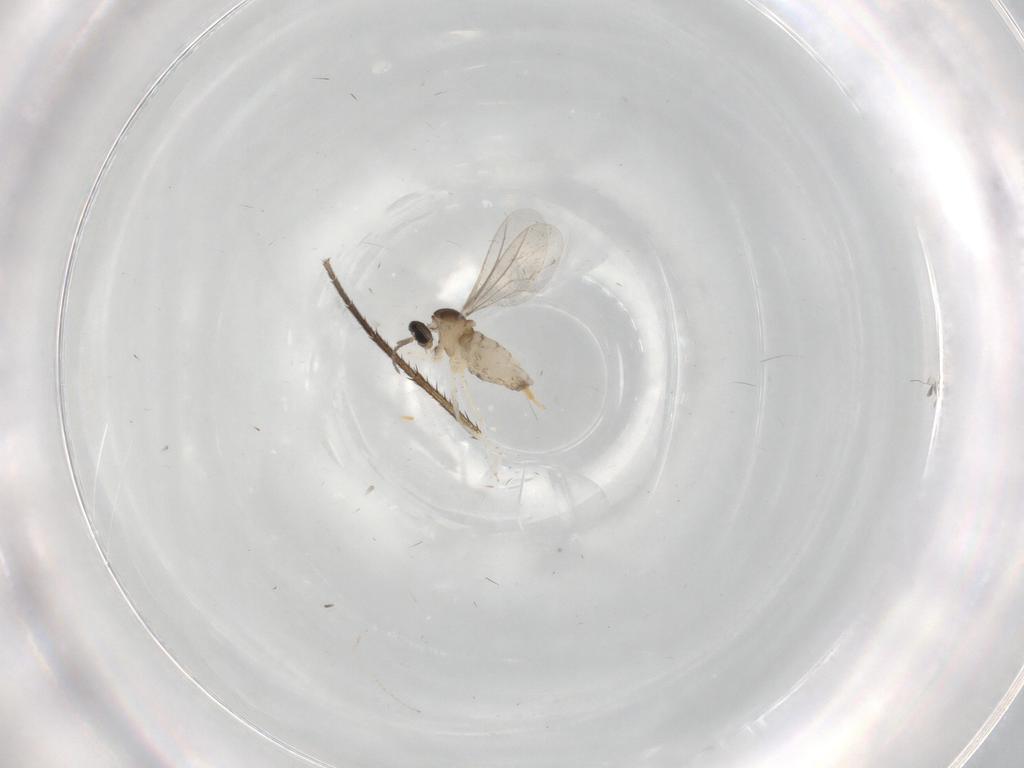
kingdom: Animalia
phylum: Arthropoda
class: Insecta
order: Diptera
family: Mycetophilidae
